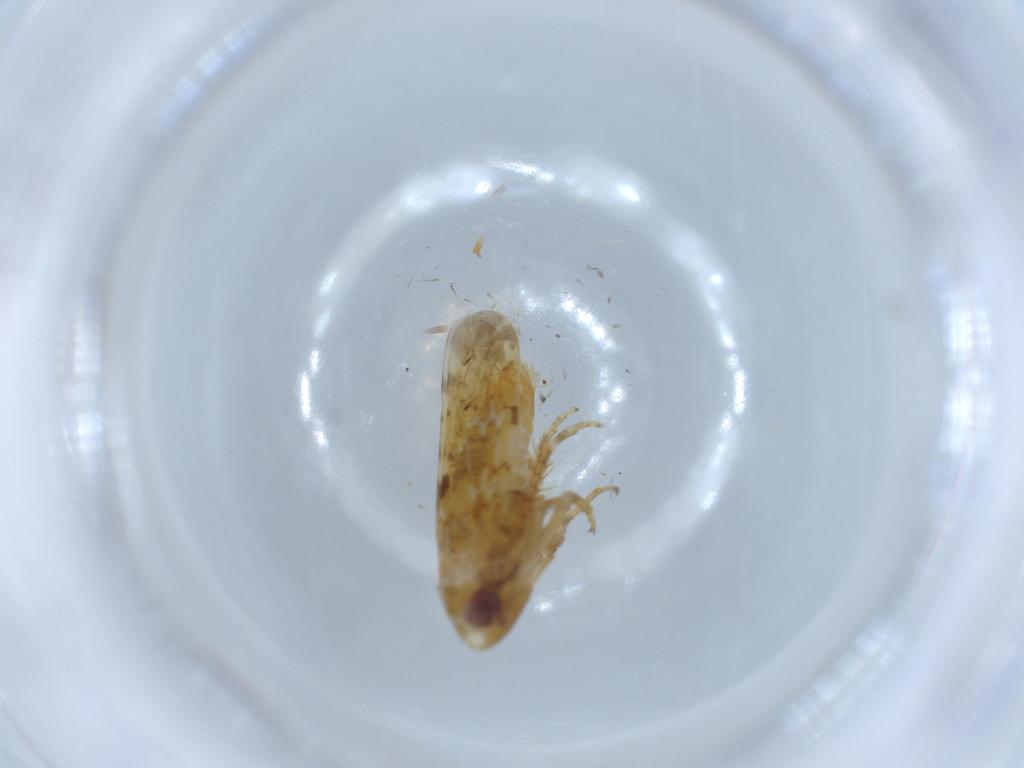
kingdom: Animalia
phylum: Arthropoda
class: Insecta
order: Hemiptera
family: Cicadellidae
